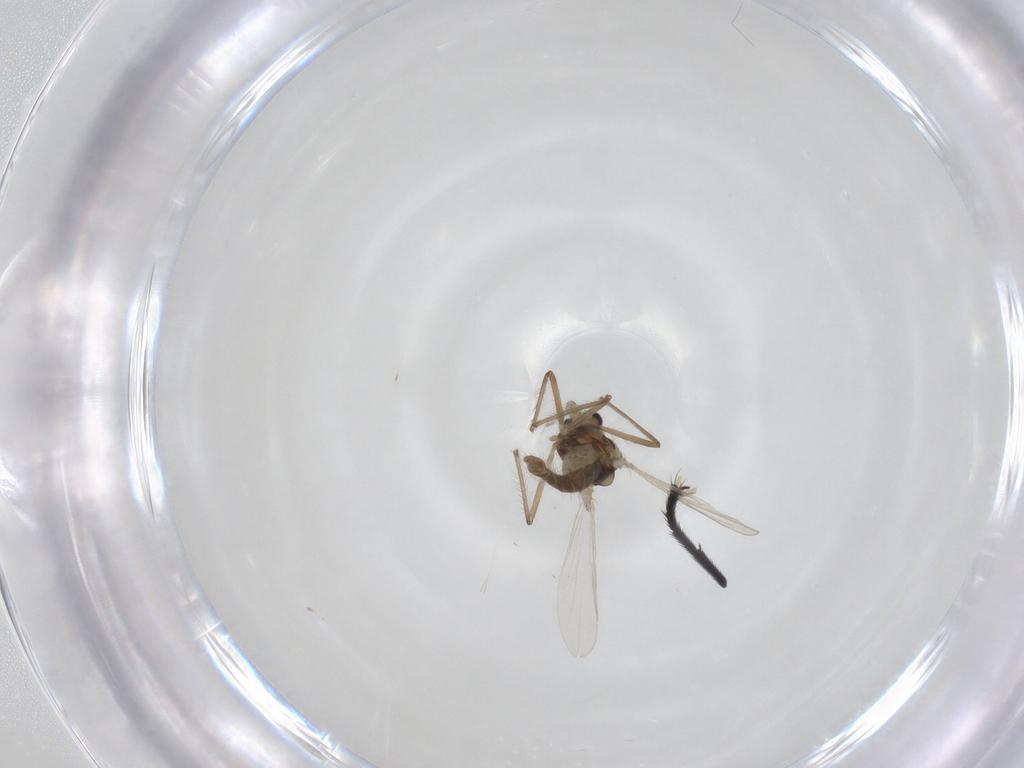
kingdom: Animalia
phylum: Arthropoda
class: Insecta
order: Diptera
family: Chironomidae
